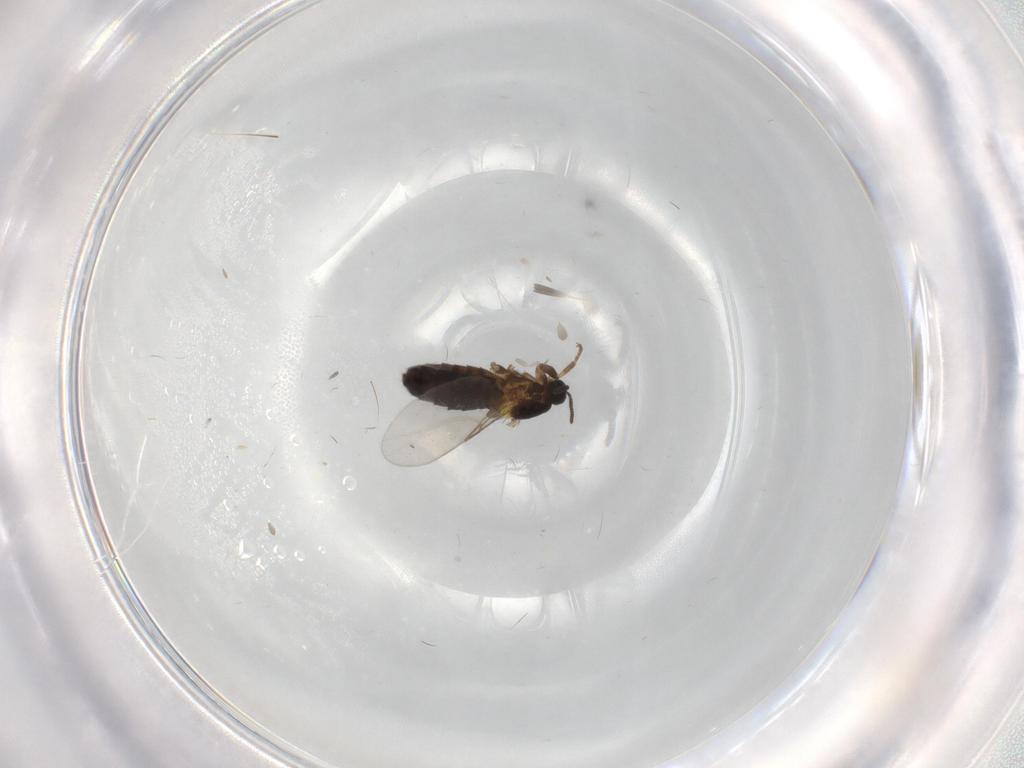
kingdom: Animalia
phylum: Arthropoda
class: Insecta
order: Diptera
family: Scatopsidae
